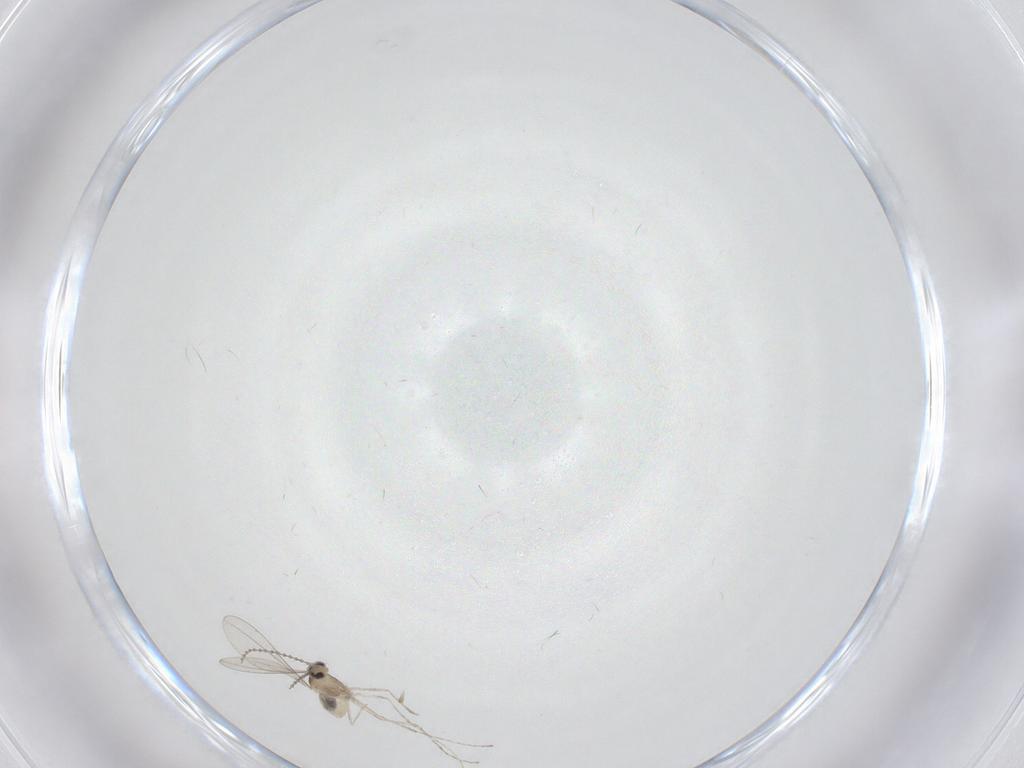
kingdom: Animalia
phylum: Arthropoda
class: Insecta
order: Diptera
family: Cecidomyiidae
